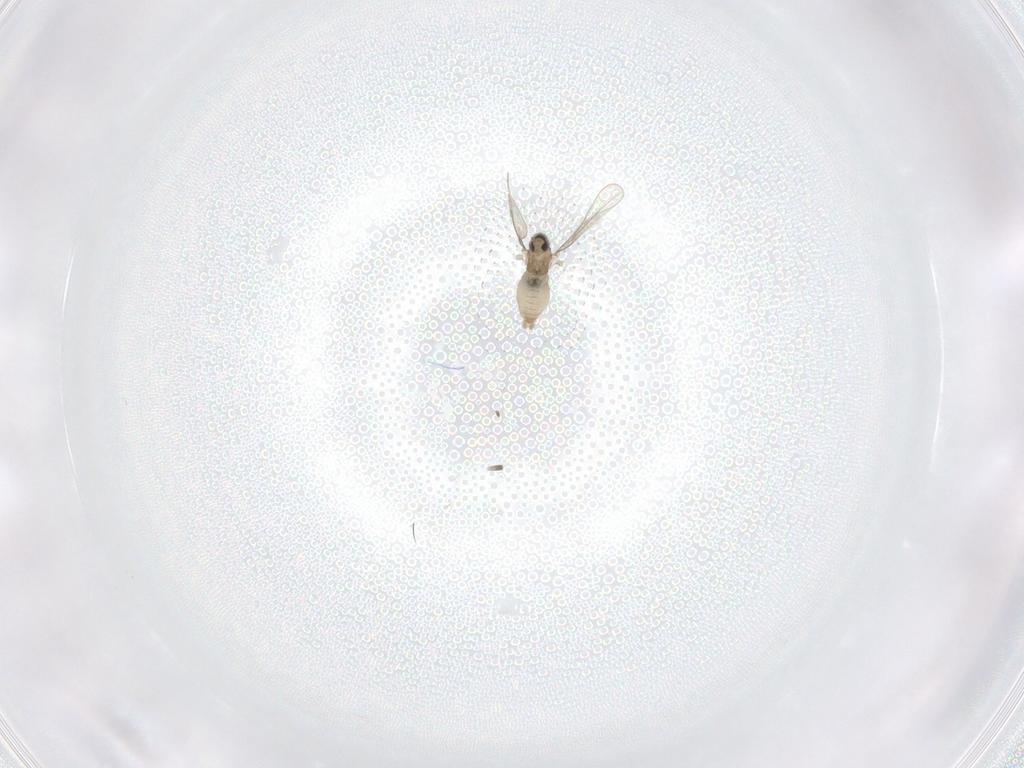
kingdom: Animalia
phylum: Arthropoda
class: Insecta
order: Diptera
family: Cecidomyiidae
